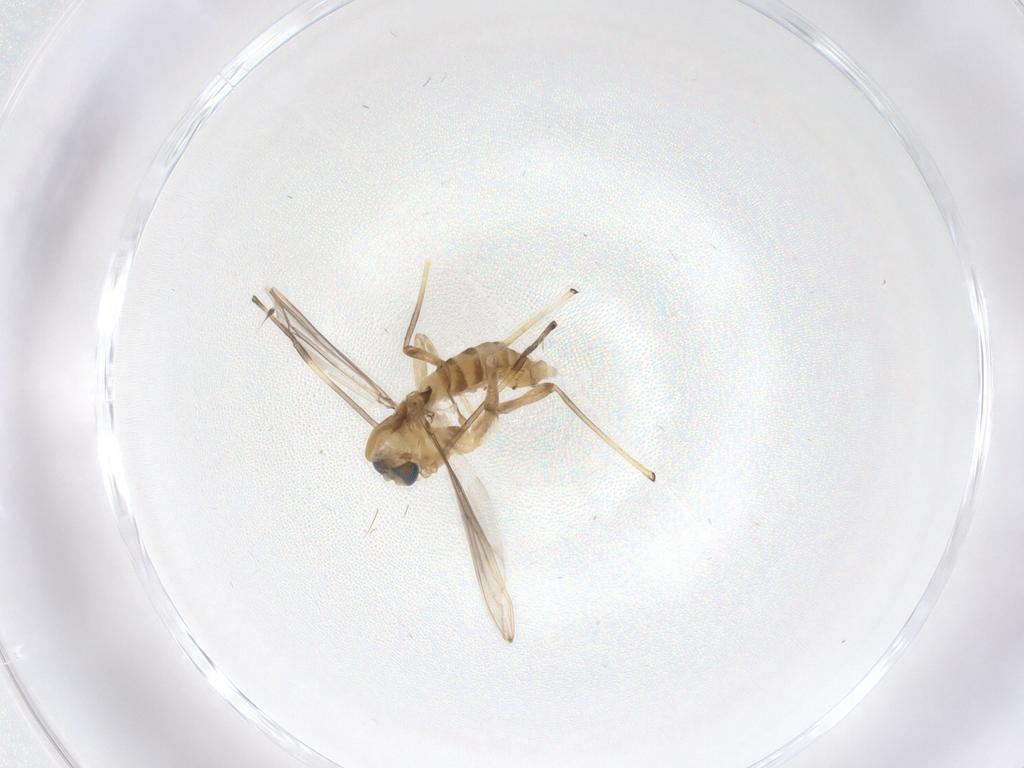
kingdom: Animalia
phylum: Arthropoda
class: Insecta
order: Diptera
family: Chironomidae
